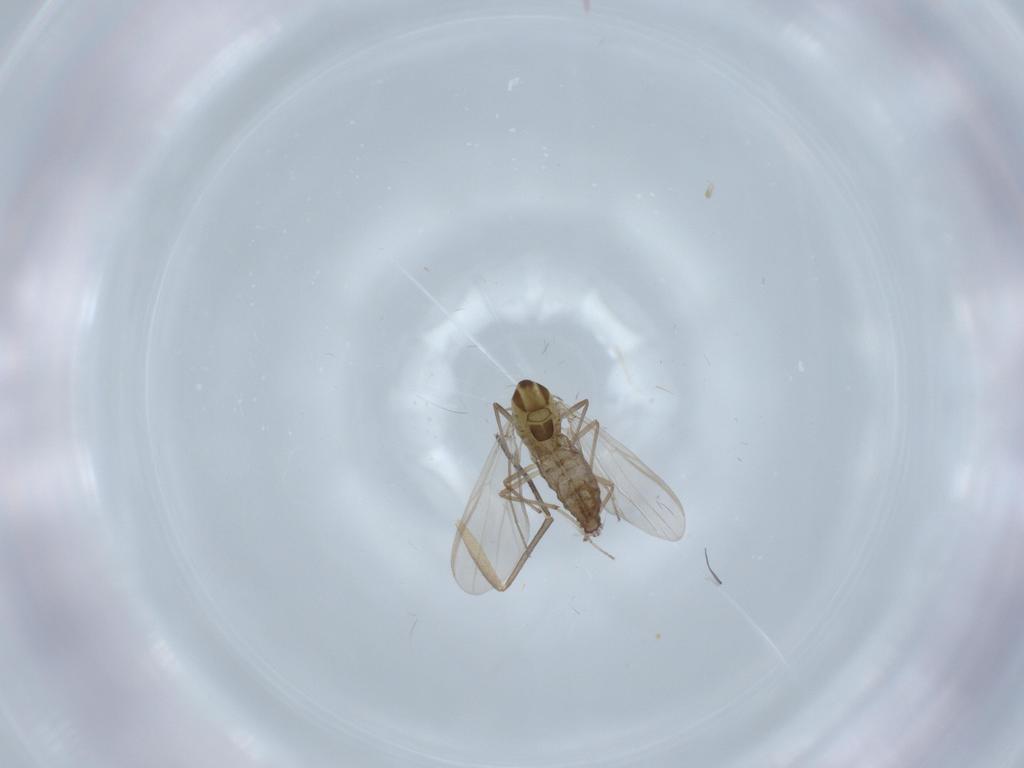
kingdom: Animalia
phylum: Arthropoda
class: Insecta
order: Diptera
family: Chironomidae
